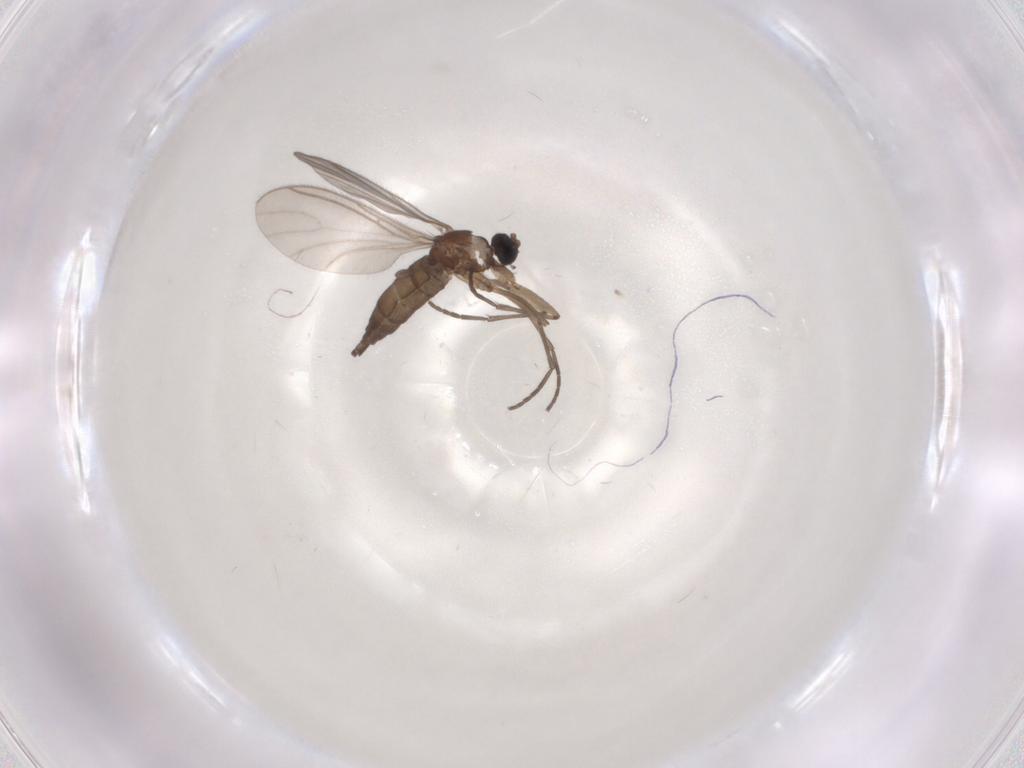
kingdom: Animalia
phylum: Arthropoda
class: Insecta
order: Diptera
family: Sciaridae
